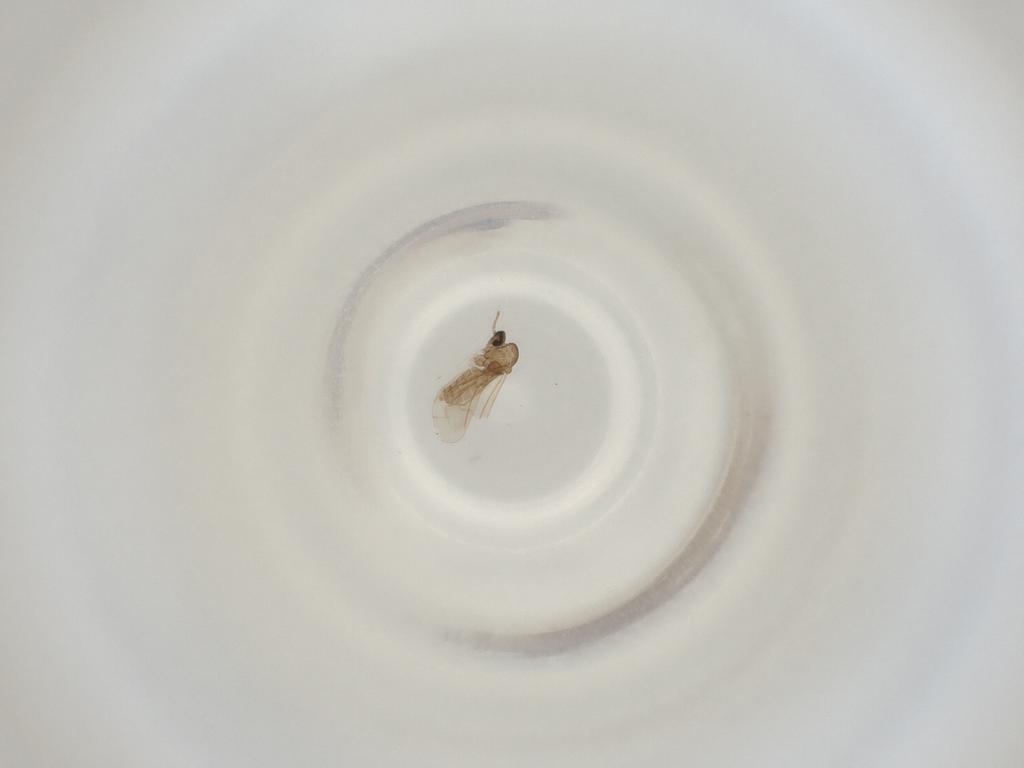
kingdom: Animalia
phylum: Arthropoda
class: Insecta
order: Diptera
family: Cecidomyiidae
